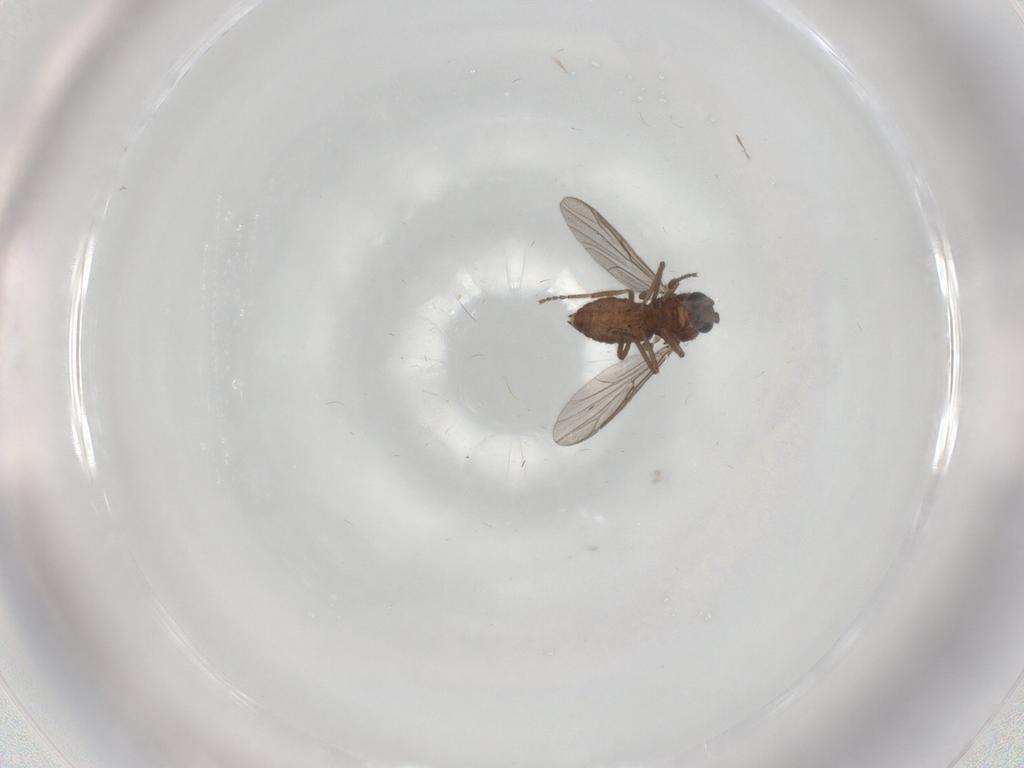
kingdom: Animalia
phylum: Arthropoda
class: Insecta
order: Diptera
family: Ceratopogonidae
